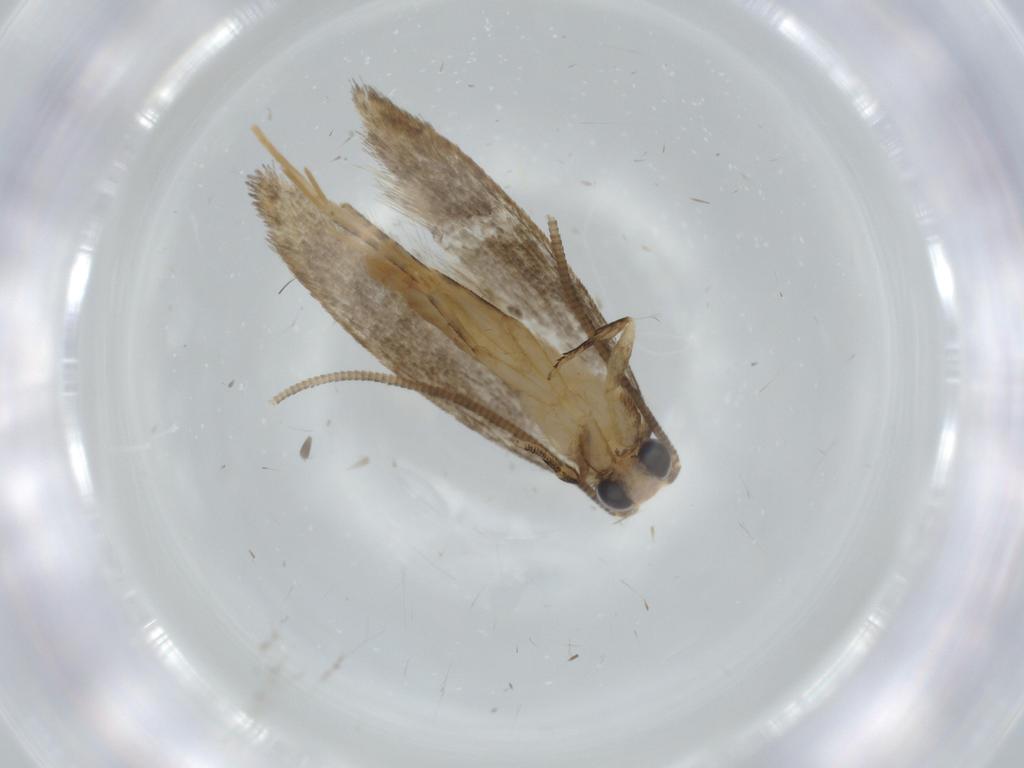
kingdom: Animalia
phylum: Arthropoda
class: Insecta
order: Lepidoptera
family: Tineidae
